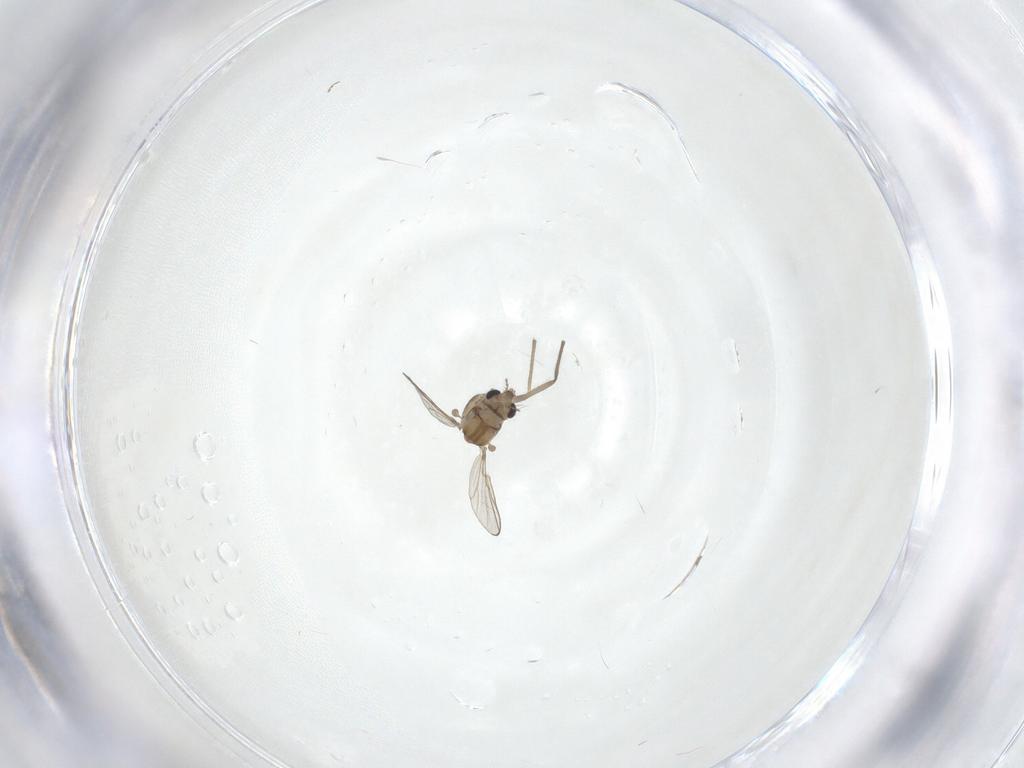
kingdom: Animalia
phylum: Arthropoda
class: Insecta
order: Diptera
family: Chironomidae
